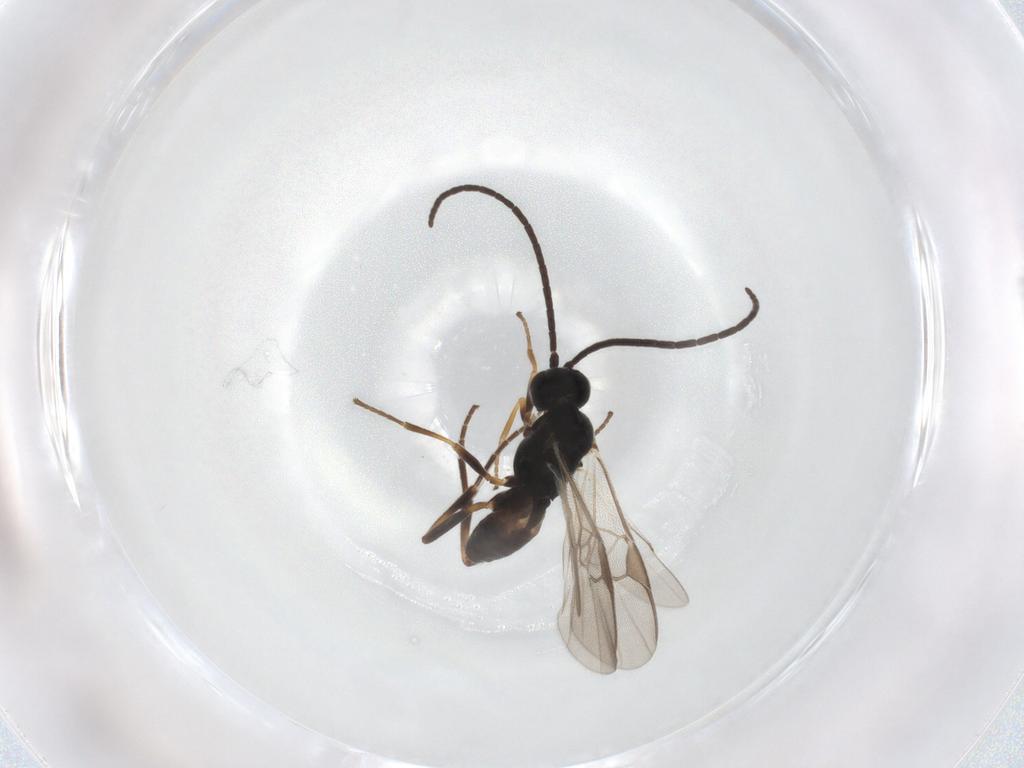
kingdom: Animalia
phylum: Arthropoda
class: Insecta
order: Hymenoptera
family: Braconidae
